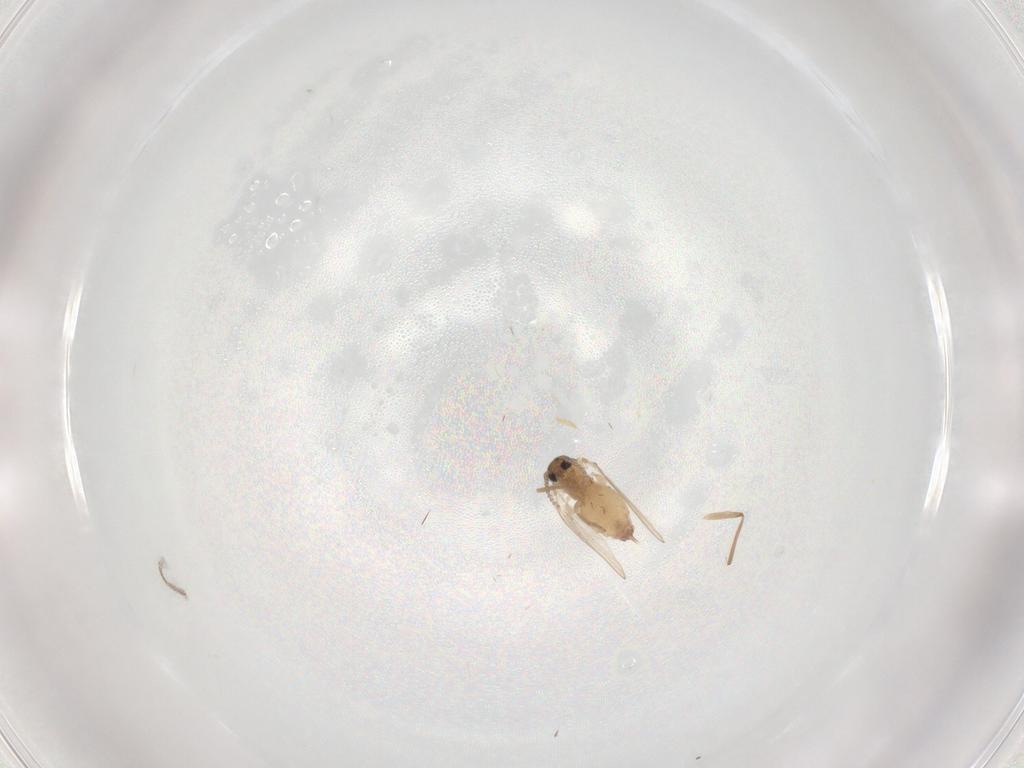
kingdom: Animalia
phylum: Arthropoda
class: Insecta
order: Diptera
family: Psychodidae
